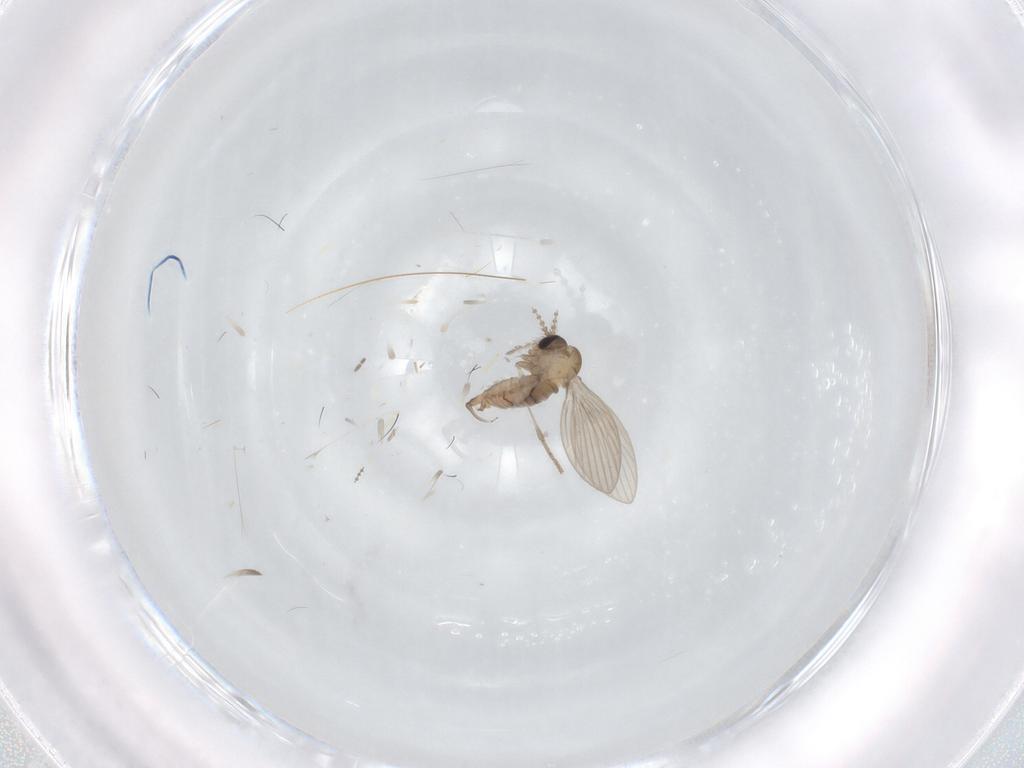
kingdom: Animalia
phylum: Arthropoda
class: Insecta
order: Diptera
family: Psychodidae
